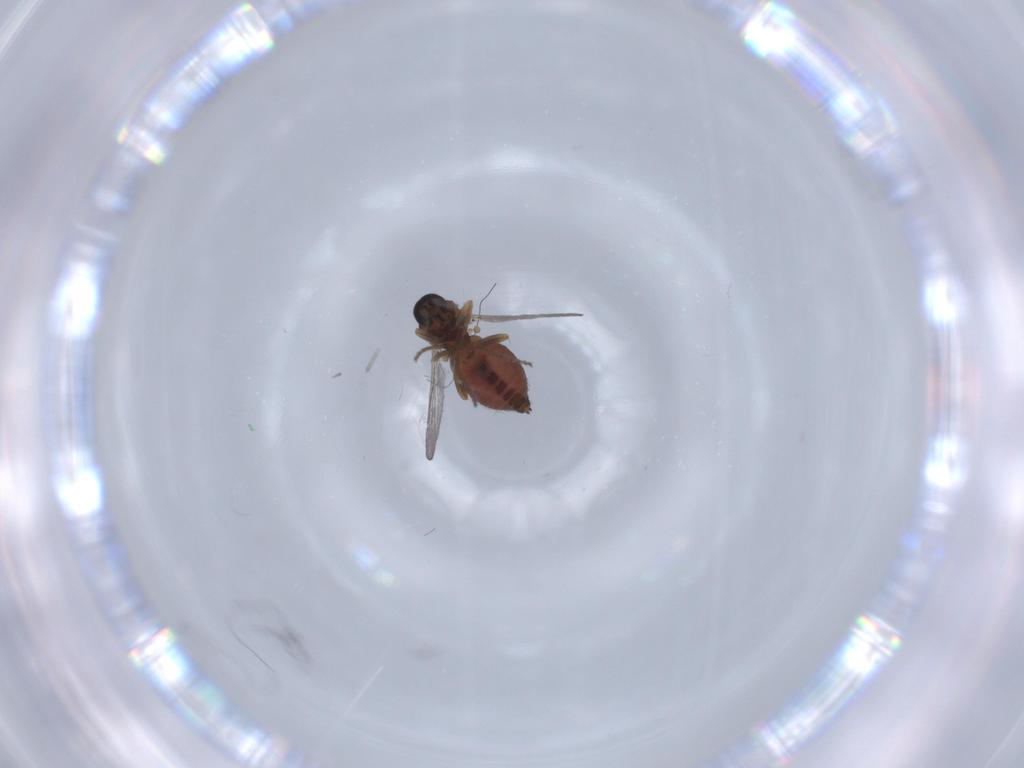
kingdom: Animalia
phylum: Arthropoda
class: Insecta
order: Diptera
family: Ceratopogonidae
